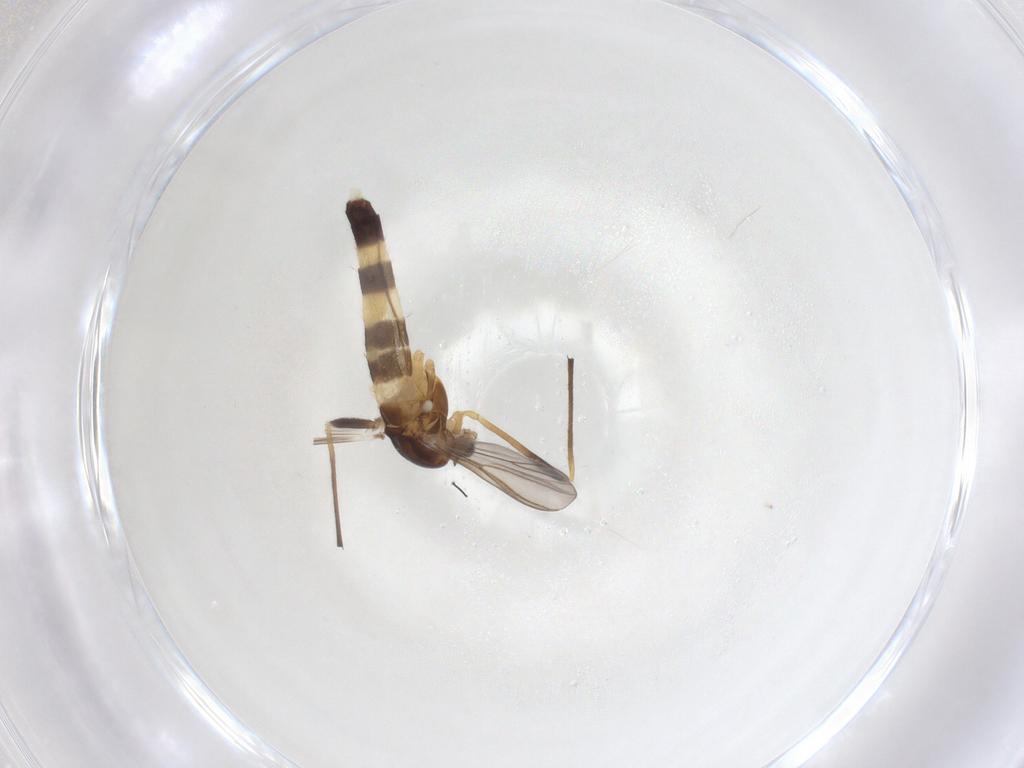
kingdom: Animalia
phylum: Arthropoda
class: Insecta
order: Diptera
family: Chironomidae
